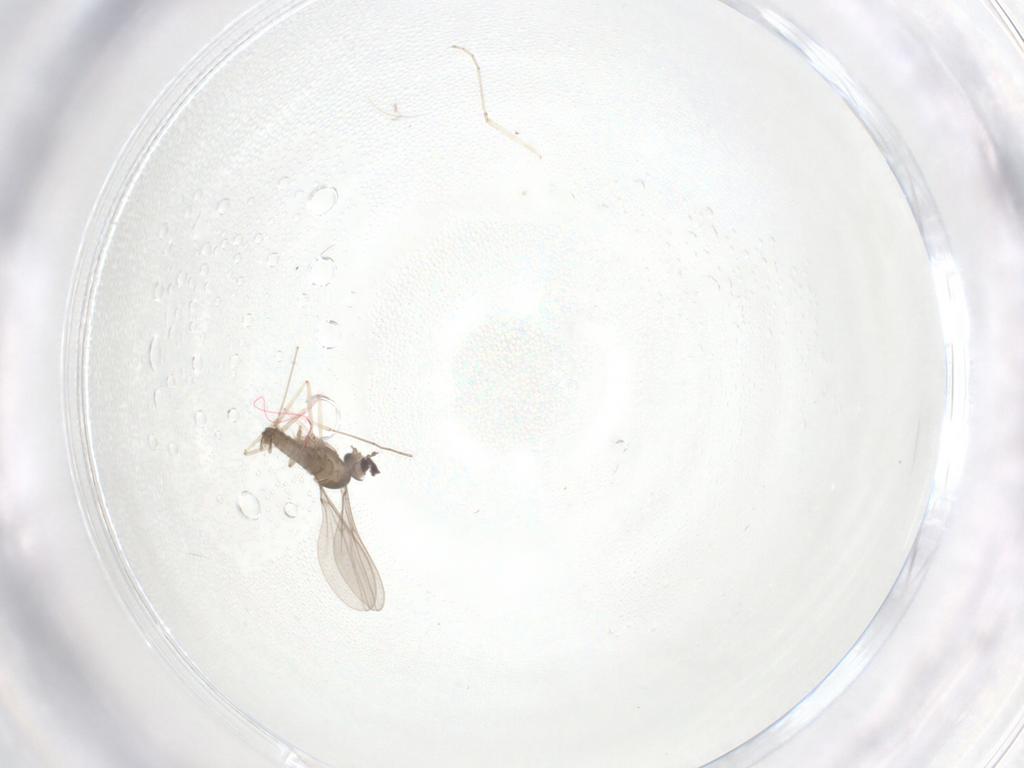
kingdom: Animalia
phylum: Arthropoda
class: Insecta
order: Diptera
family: Cecidomyiidae
